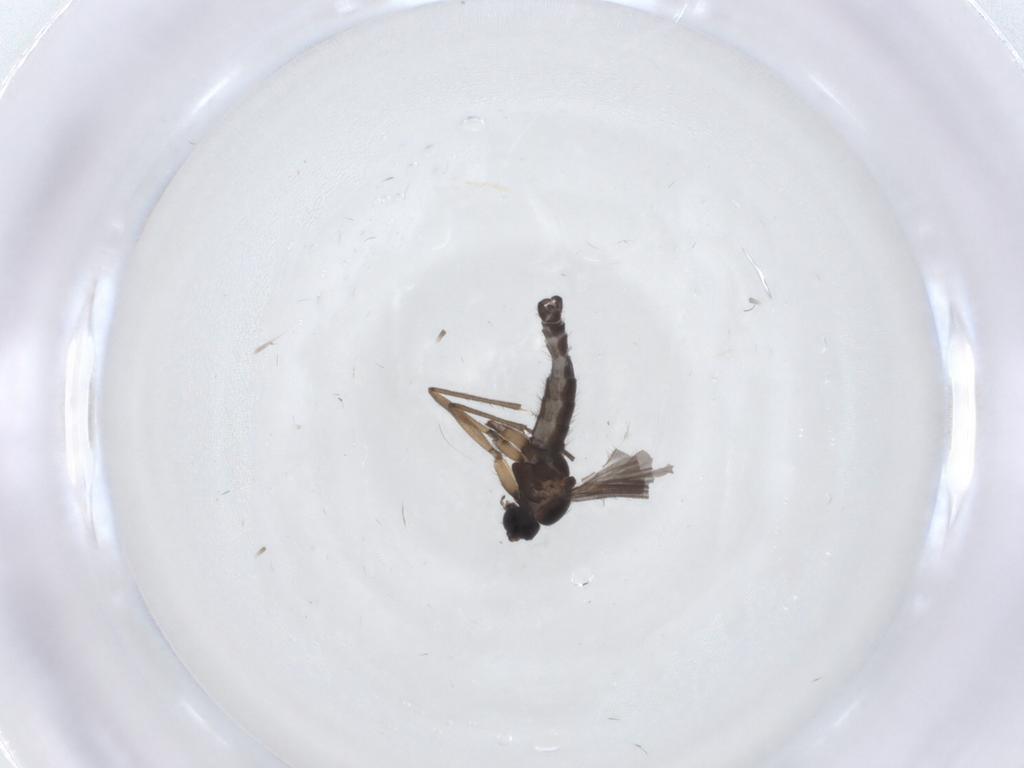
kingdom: Animalia
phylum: Arthropoda
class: Insecta
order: Diptera
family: Sciaridae
